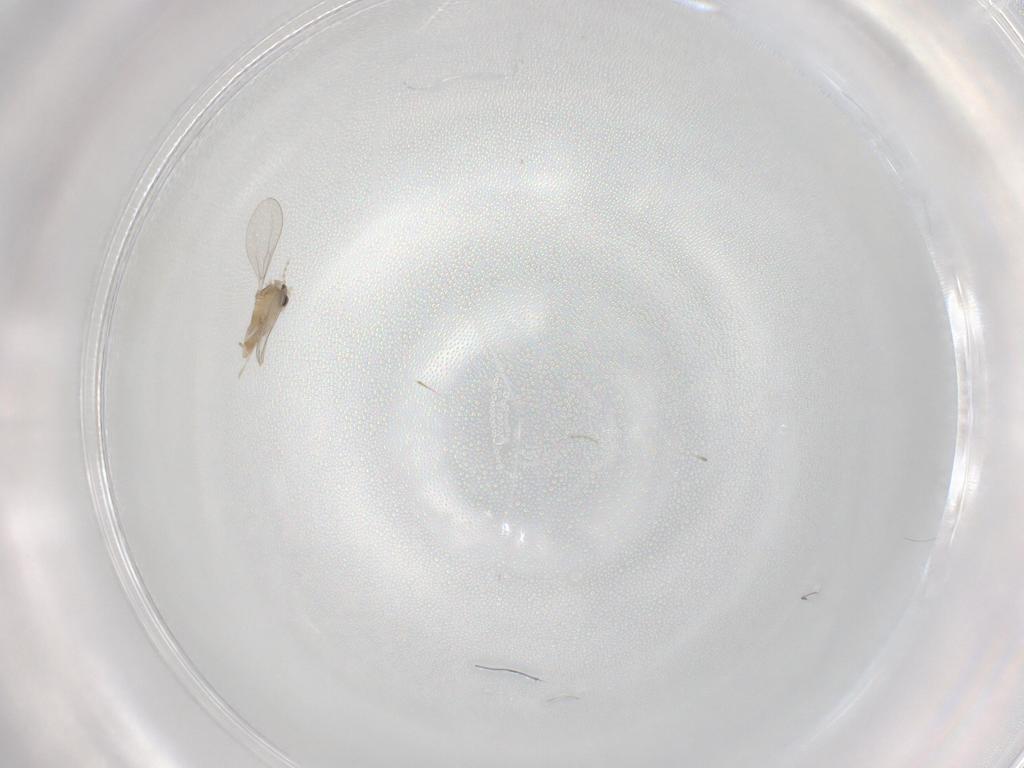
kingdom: Animalia
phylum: Arthropoda
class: Insecta
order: Diptera
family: Cecidomyiidae
